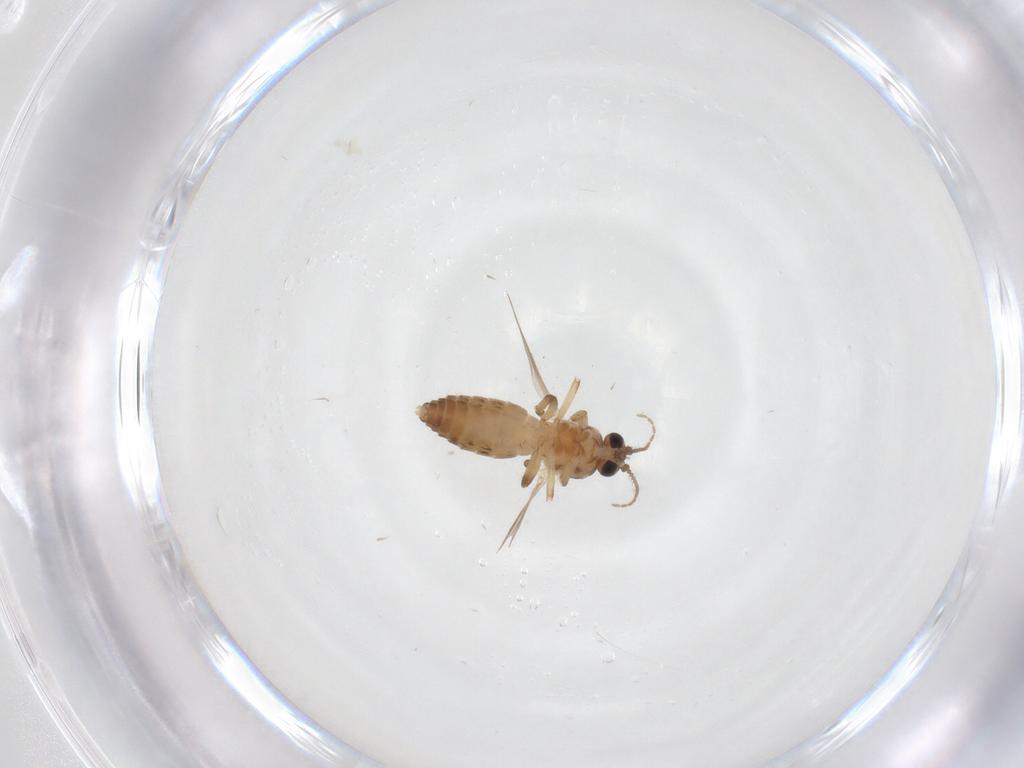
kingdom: Animalia
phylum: Arthropoda
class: Insecta
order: Diptera
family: Ceratopogonidae
